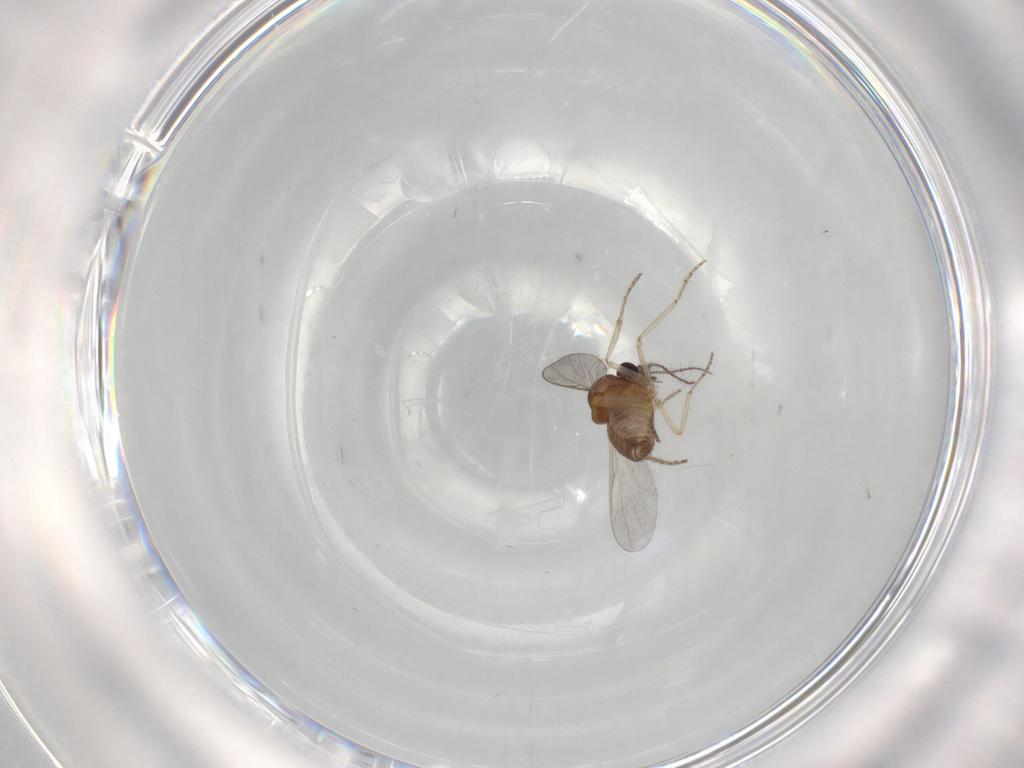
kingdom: Animalia
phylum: Arthropoda
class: Insecta
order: Diptera
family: Ceratopogonidae
